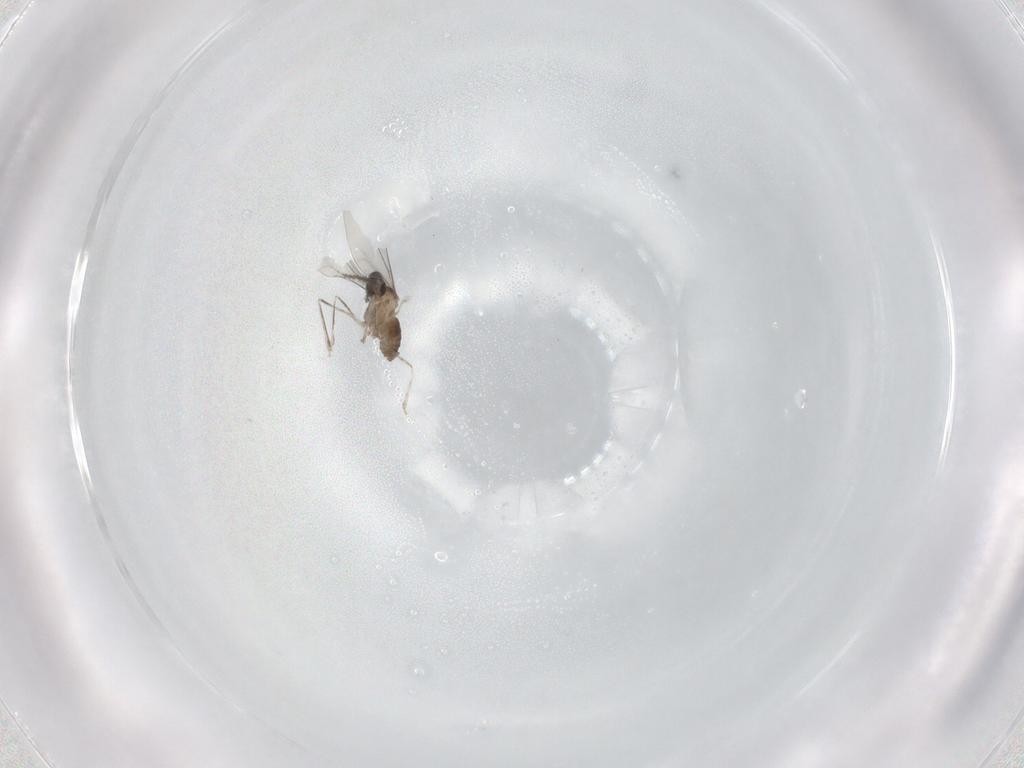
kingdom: Animalia
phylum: Arthropoda
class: Insecta
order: Diptera
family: Cecidomyiidae
